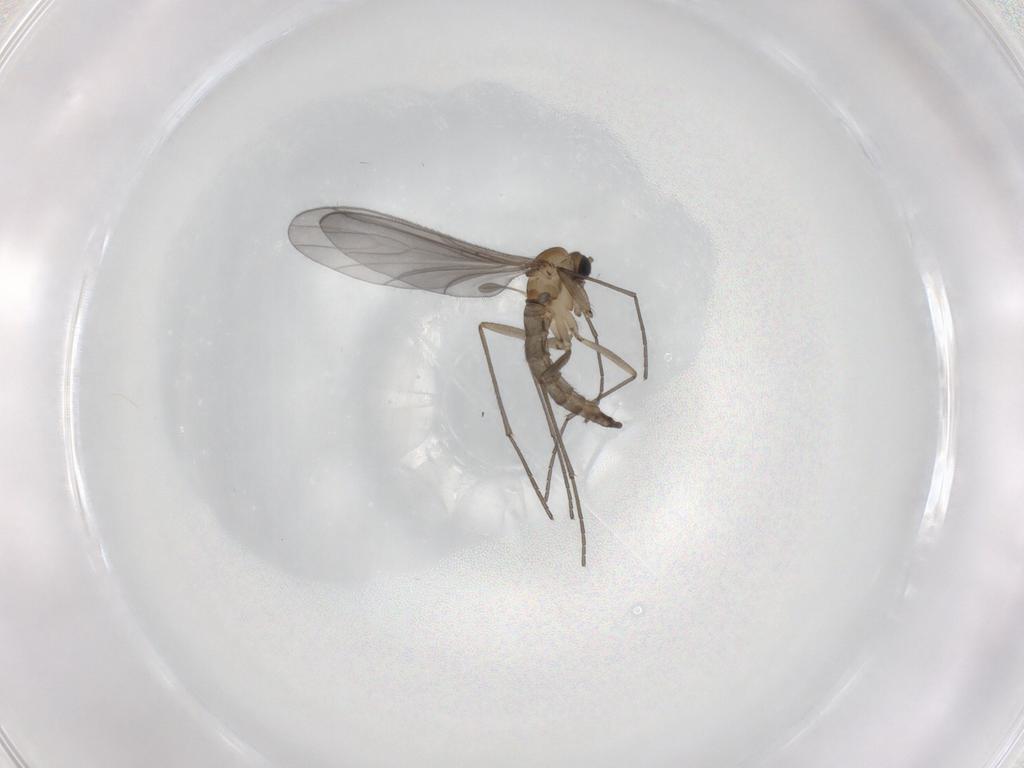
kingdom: Animalia
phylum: Arthropoda
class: Insecta
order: Diptera
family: Sciaridae
